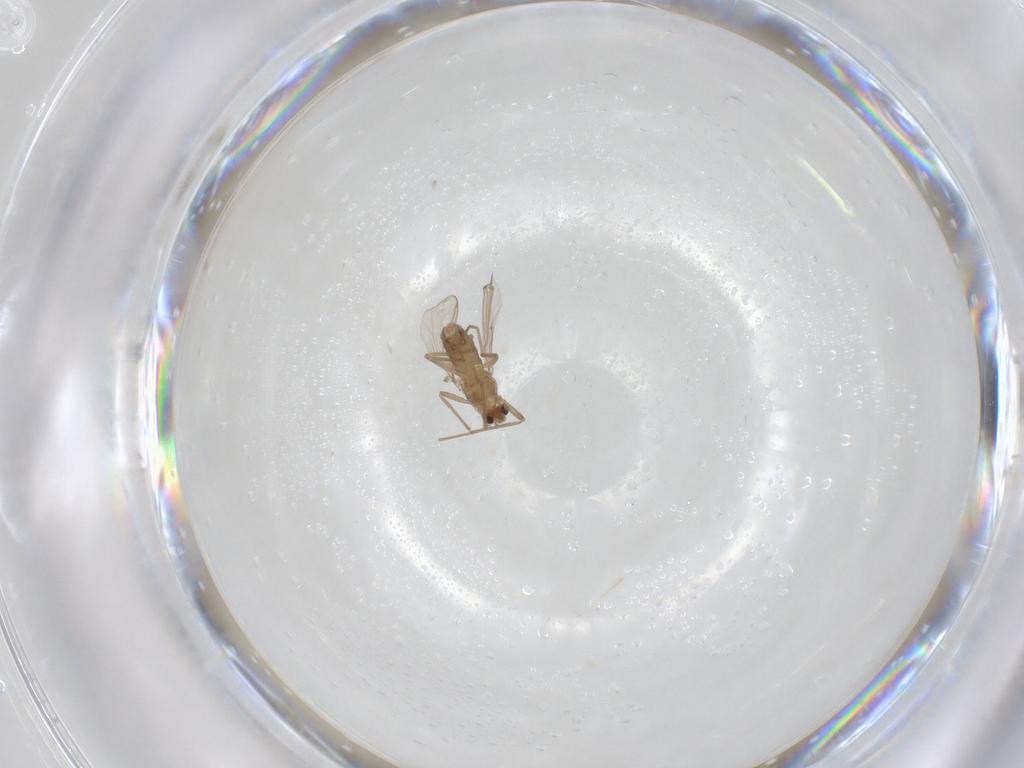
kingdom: Animalia
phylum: Arthropoda
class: Insecta
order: Diptera
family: Chironomidae
